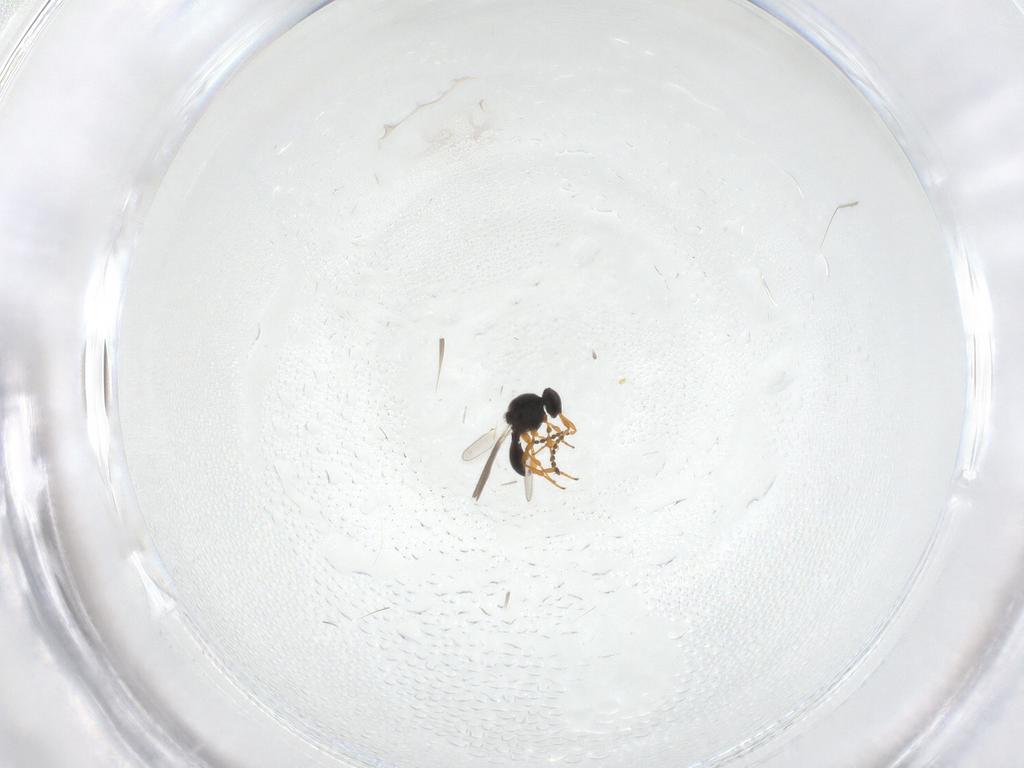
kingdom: Animalia
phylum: Arthropoda
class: Insecta
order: Hymenoptera
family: Platygastridae
